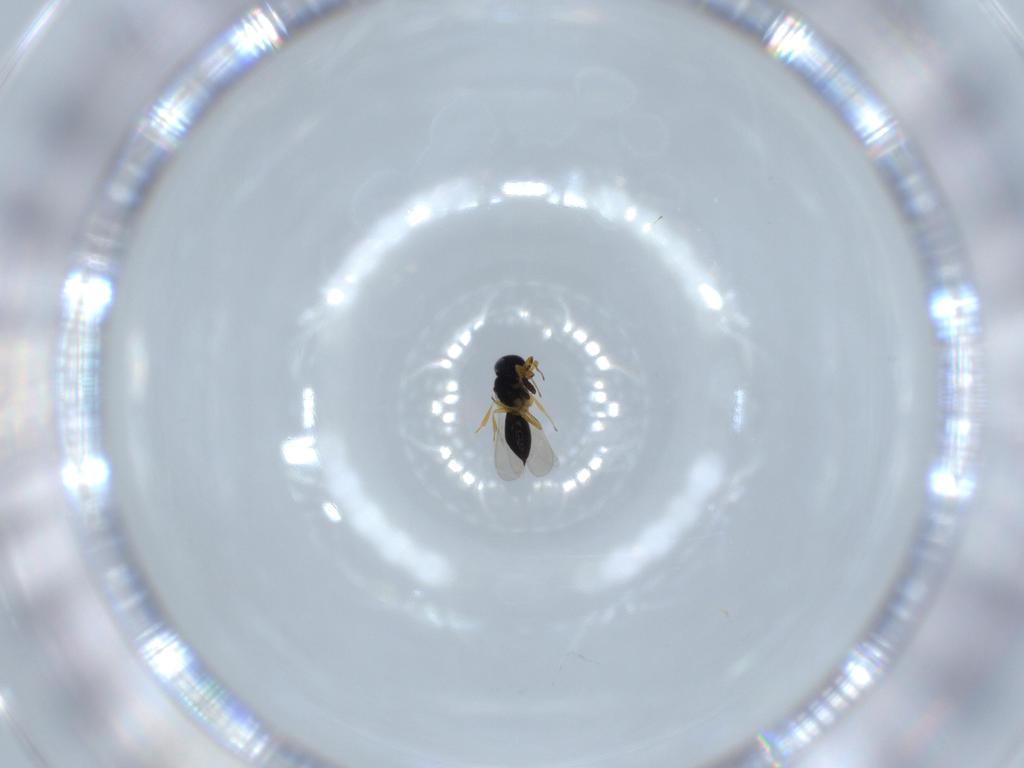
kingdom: Animalia
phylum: Arthropoda
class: Insecta
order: Hymenoptera
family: Scelionidae
